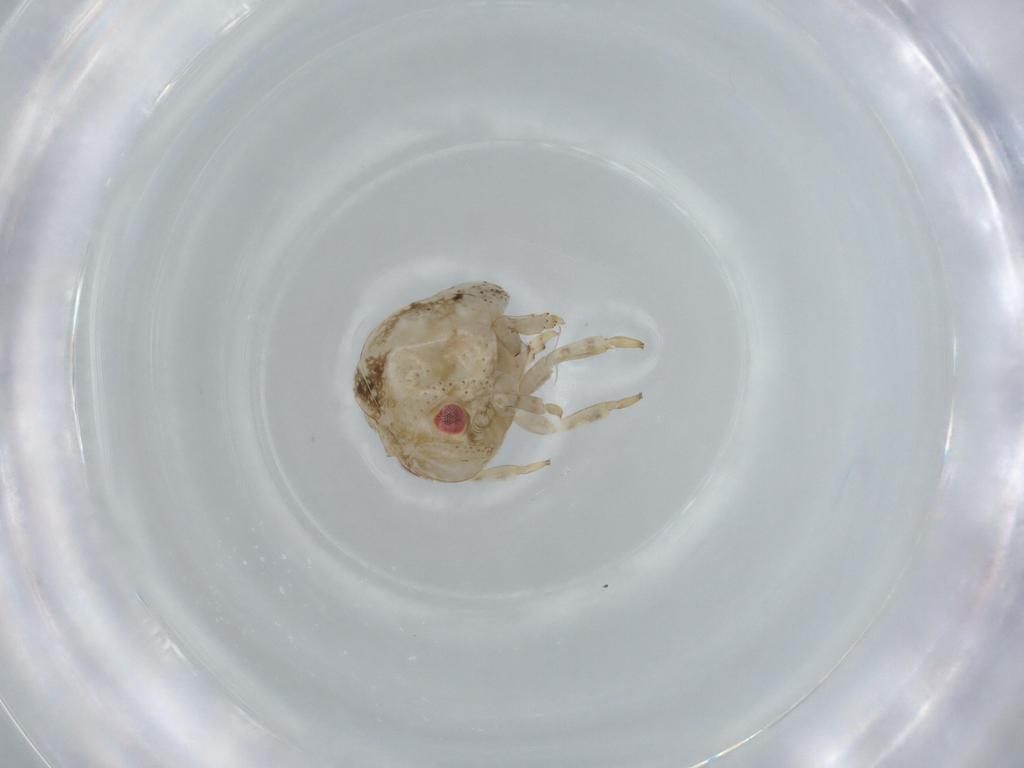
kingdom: Animalia
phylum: Arthropoda
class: Insecta
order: Hemiptera
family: Acanaloniidae
